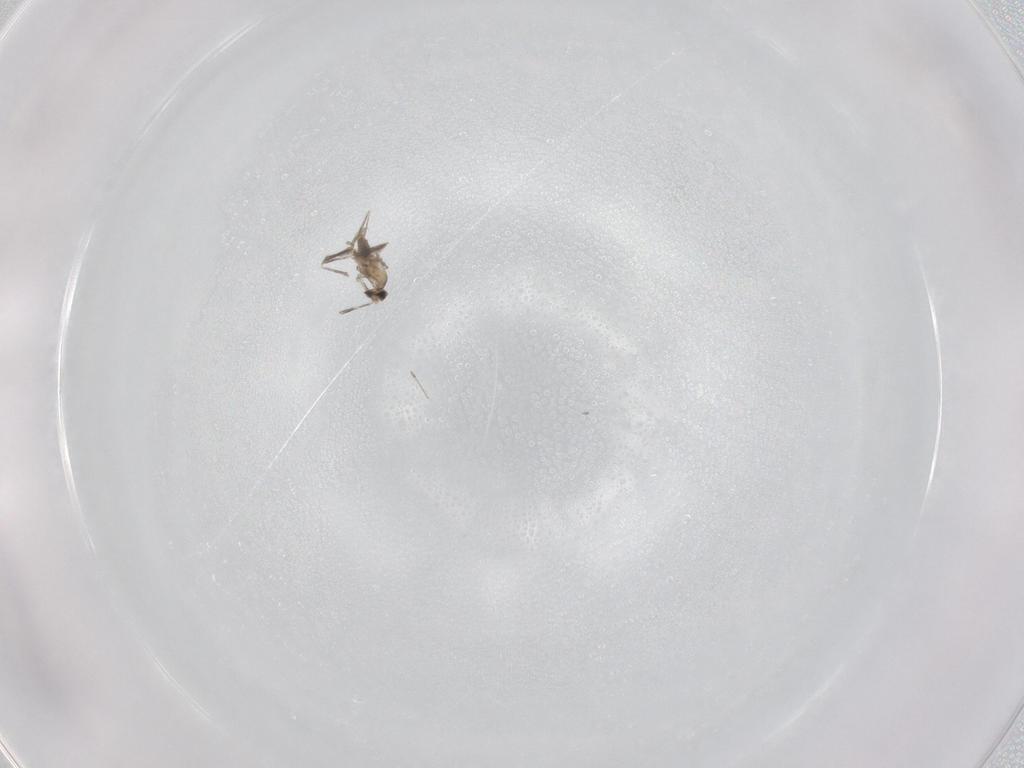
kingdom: Animalia
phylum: Arthropoda
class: Insecta
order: Diptera
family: Cecidomyiidae
